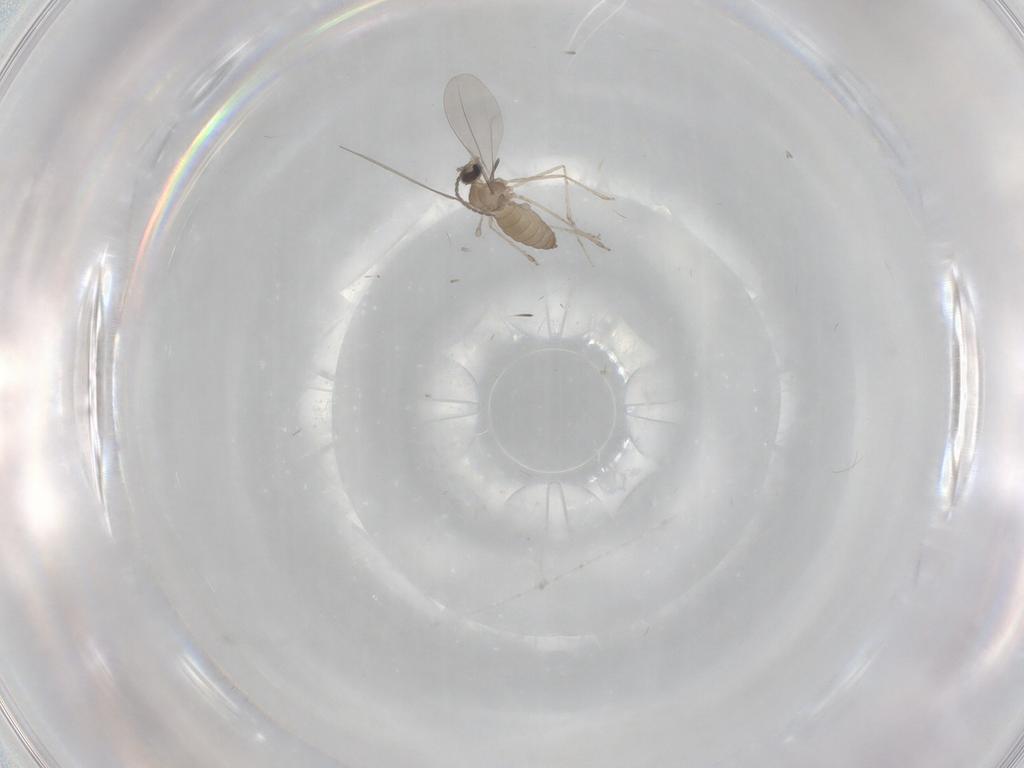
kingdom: Animalia
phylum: Arthropoda
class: Insecta
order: Diptera
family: Cecidomyiidae
